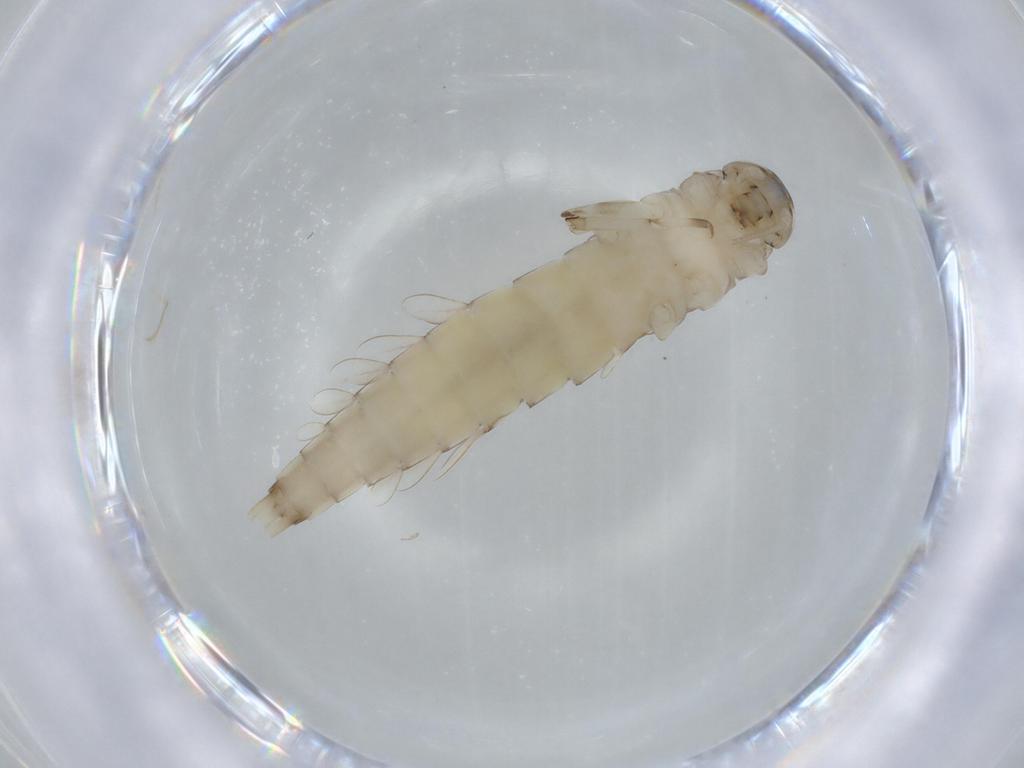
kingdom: Animalia
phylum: Arthropoda
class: Insecta
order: Ephemeroptera
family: Baetidae
